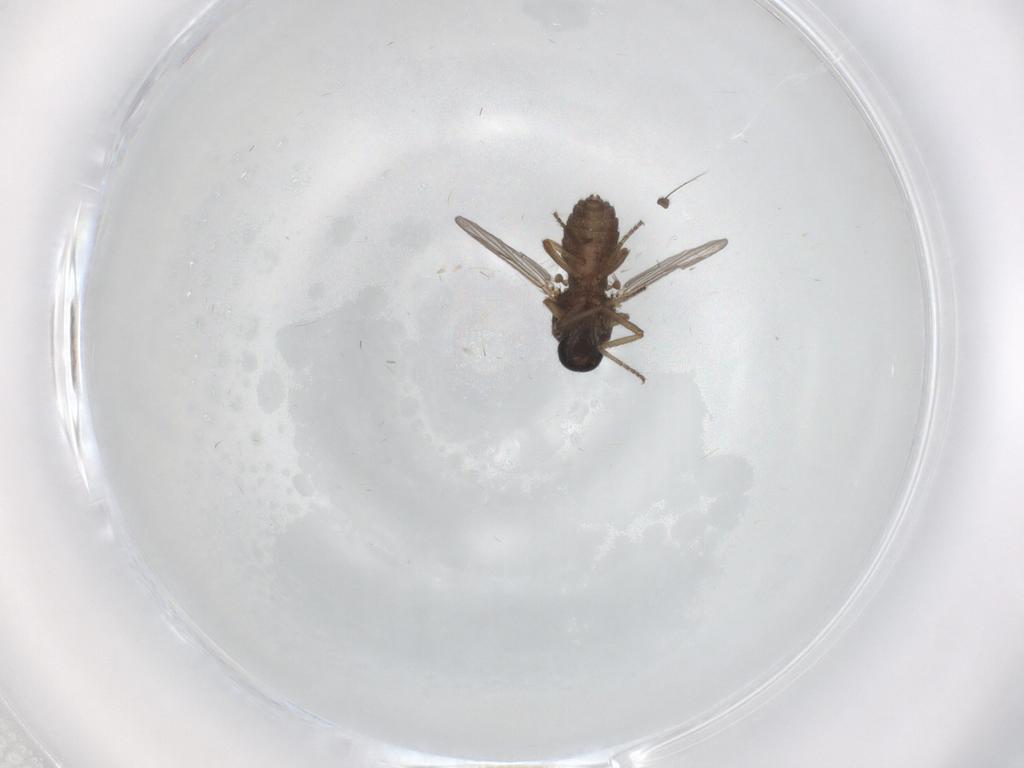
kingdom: Animalia
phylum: Arthropoda
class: Insecta
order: Diptera
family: Ceratopogonidae
